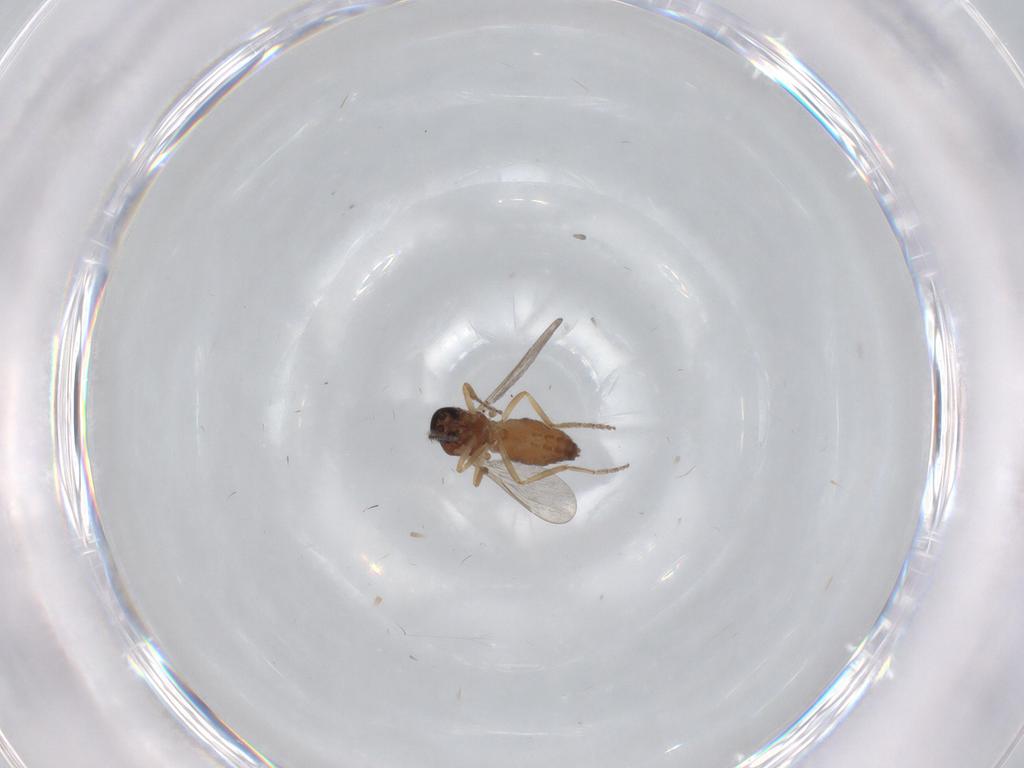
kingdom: Animalia
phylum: Arthropoda
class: Insecta
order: Diptera
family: Ceratopogonidae
